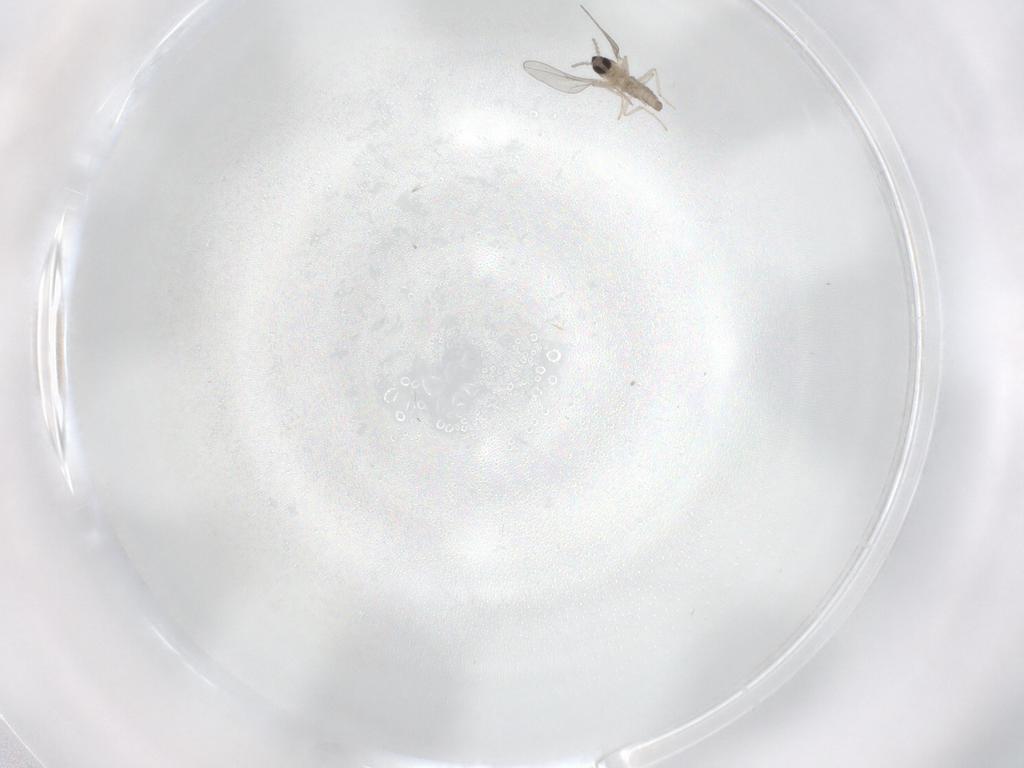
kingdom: Animalia
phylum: Arthropoda
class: Insecta
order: Diptera
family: Cecidomyiidae
